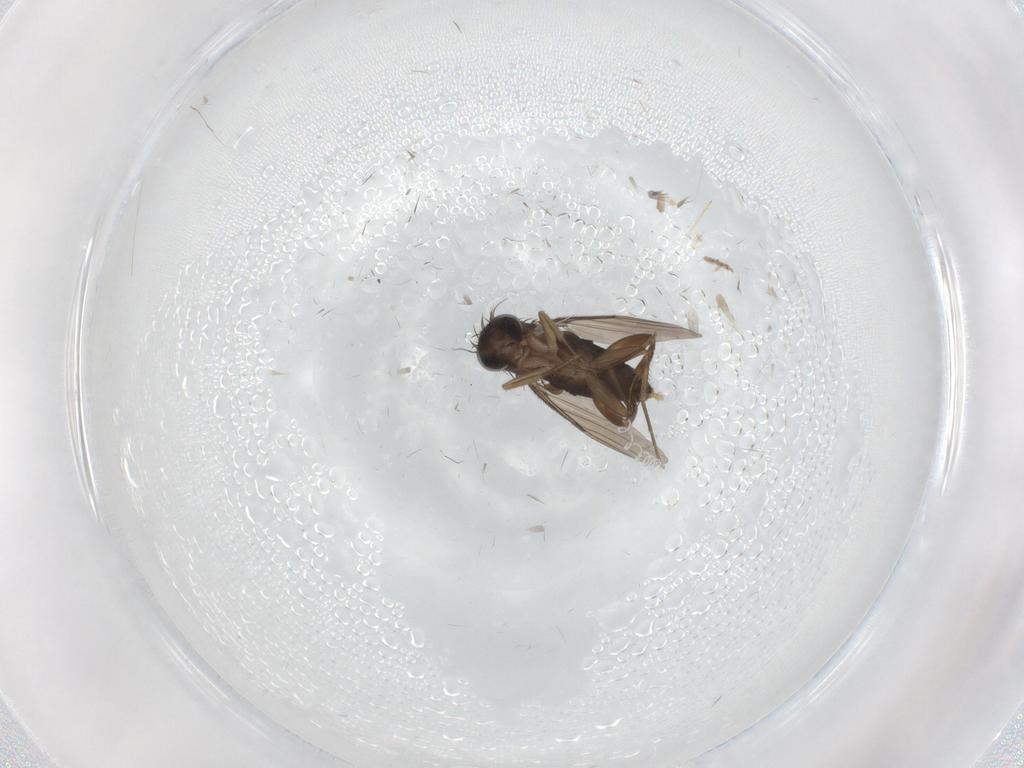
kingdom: Animalia
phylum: Arthropoda
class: Insecta
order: Diptera
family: Phoridae
